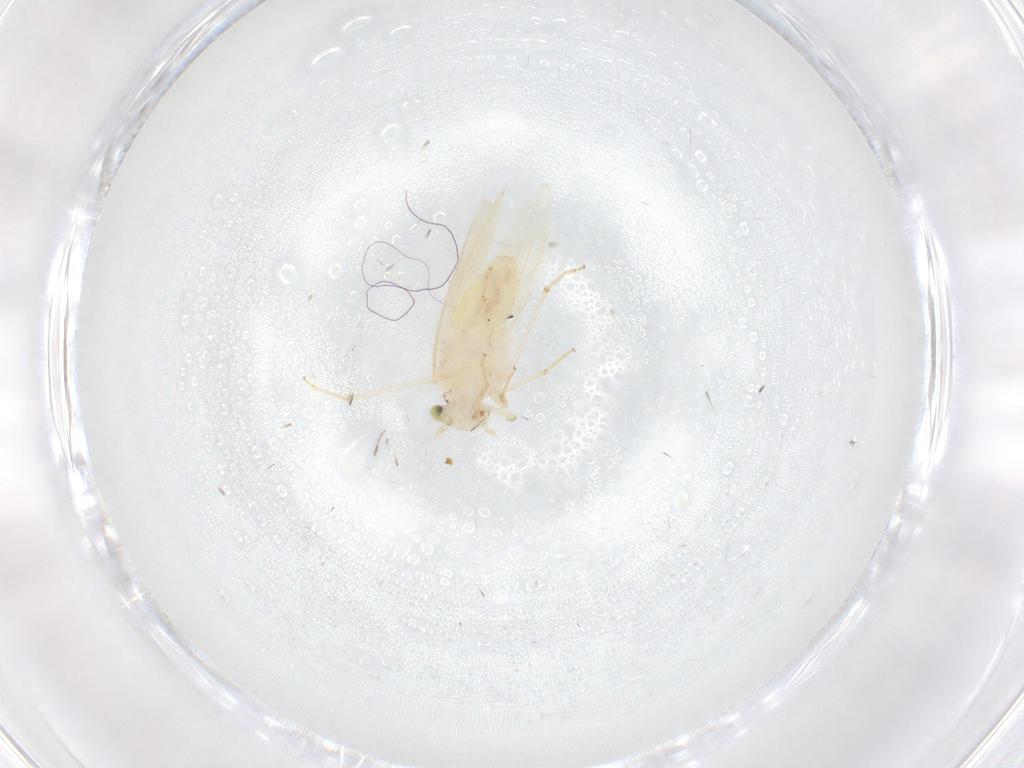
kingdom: Animalia
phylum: Arthropoda
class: Insecta
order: Psocodea
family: Lepidopsocidae
